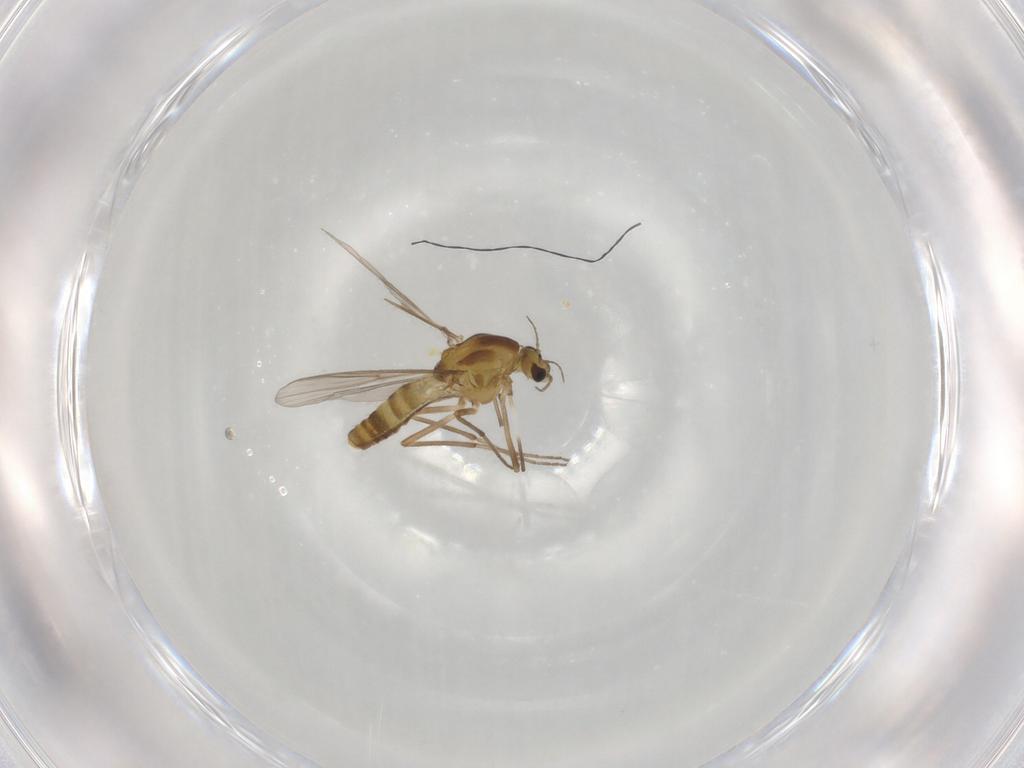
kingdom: Animalia
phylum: Arthropoda
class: Insecta
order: Diptera
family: Chironomidae
